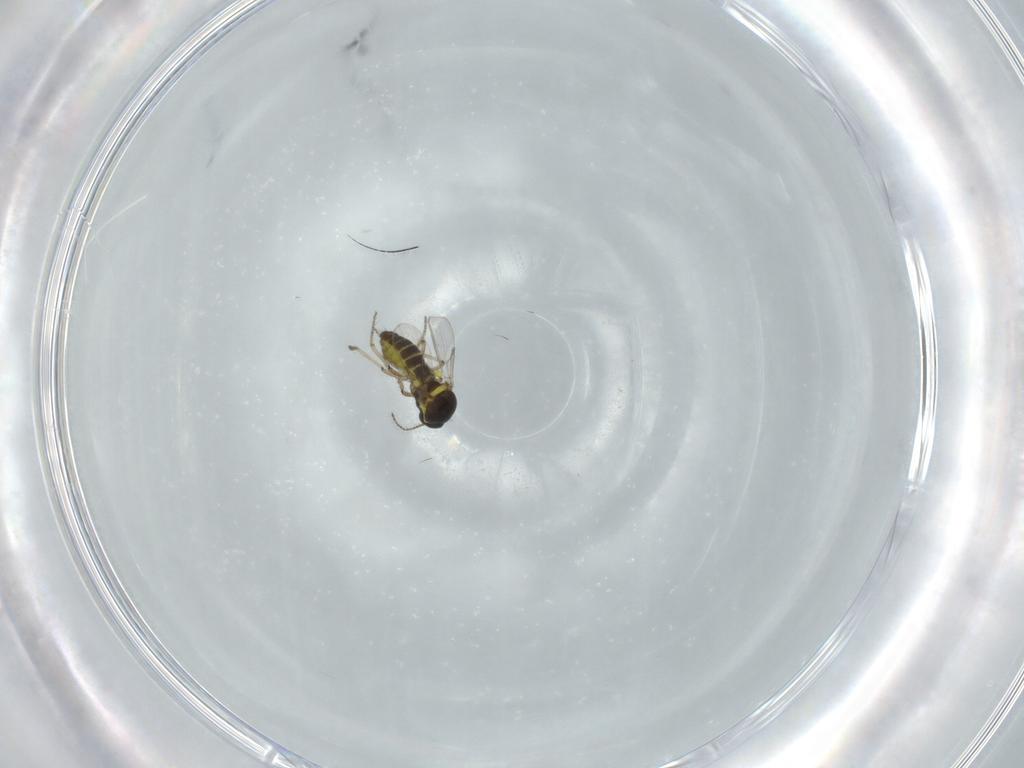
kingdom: Animalia
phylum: Arthropoda
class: Insecta
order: Diptera
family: Ceratopogonidae
